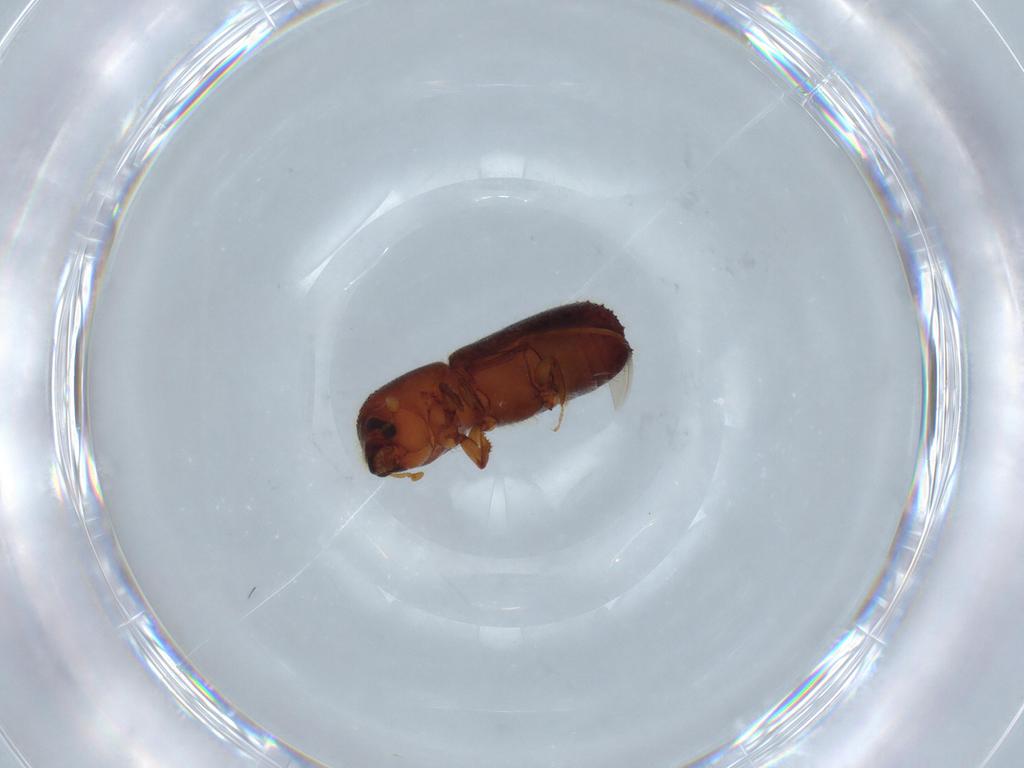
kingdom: Animalia
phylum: Arthropoda
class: Insecta
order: Coleoptera
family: Curculionidae
